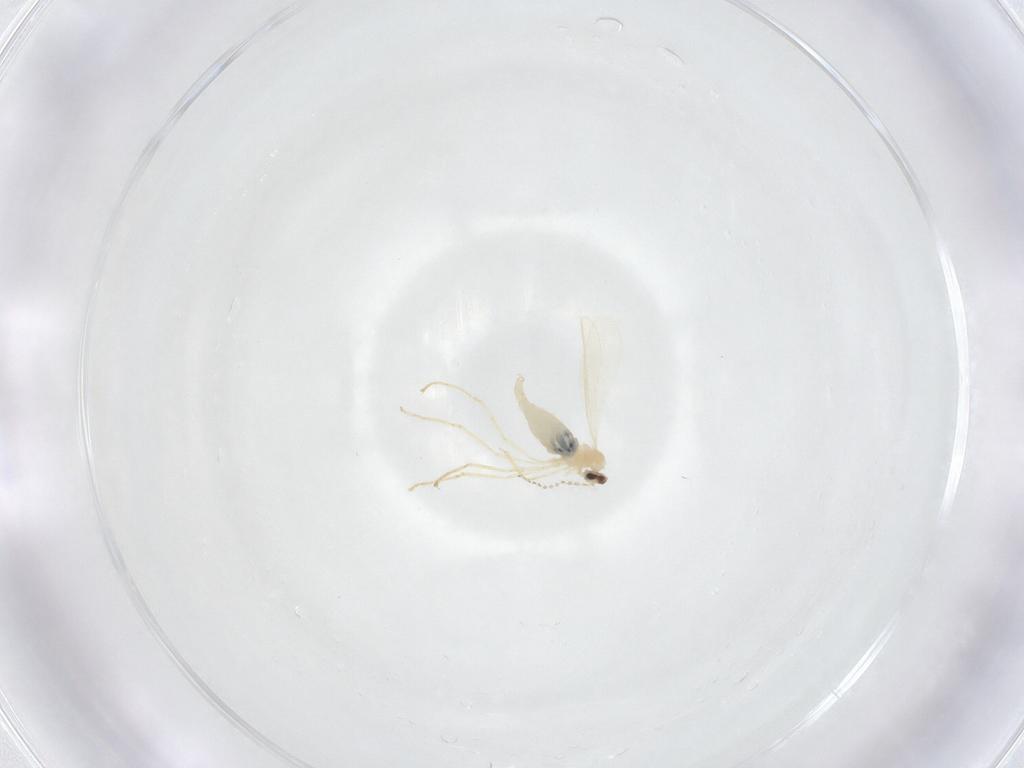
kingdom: Animalia
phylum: Arthropoda
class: Insecta
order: Diptera
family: Cecidomyiidae
